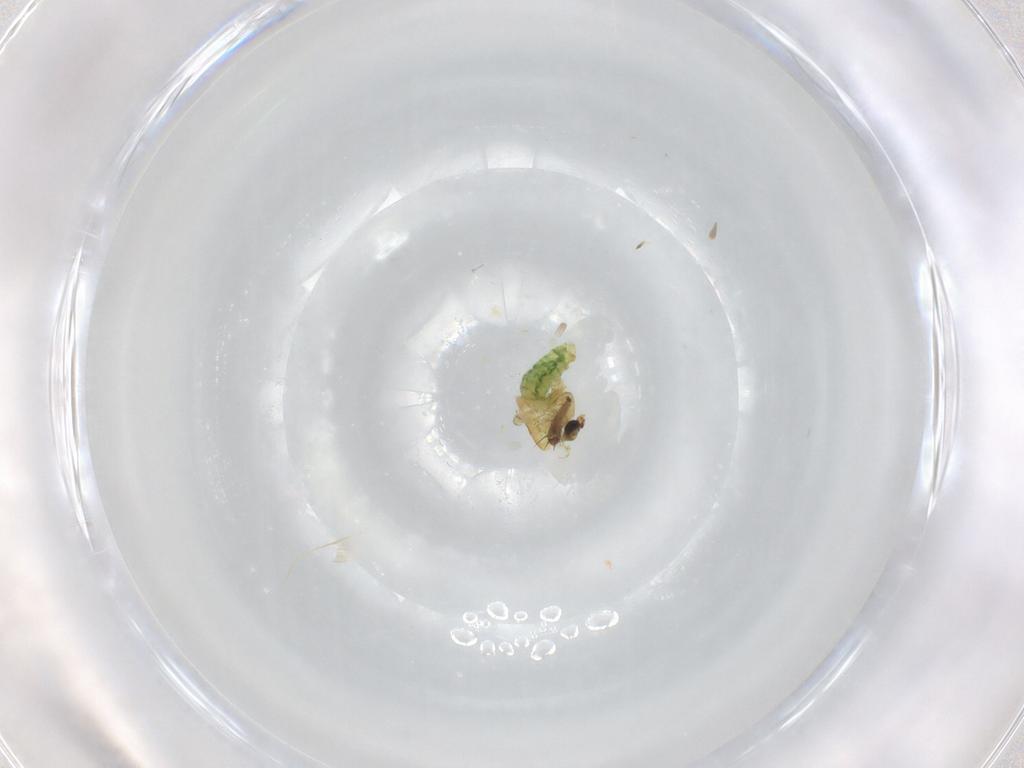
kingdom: Animalia
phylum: Arthropoda
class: Insecta
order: Diptera
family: Chironomidae
